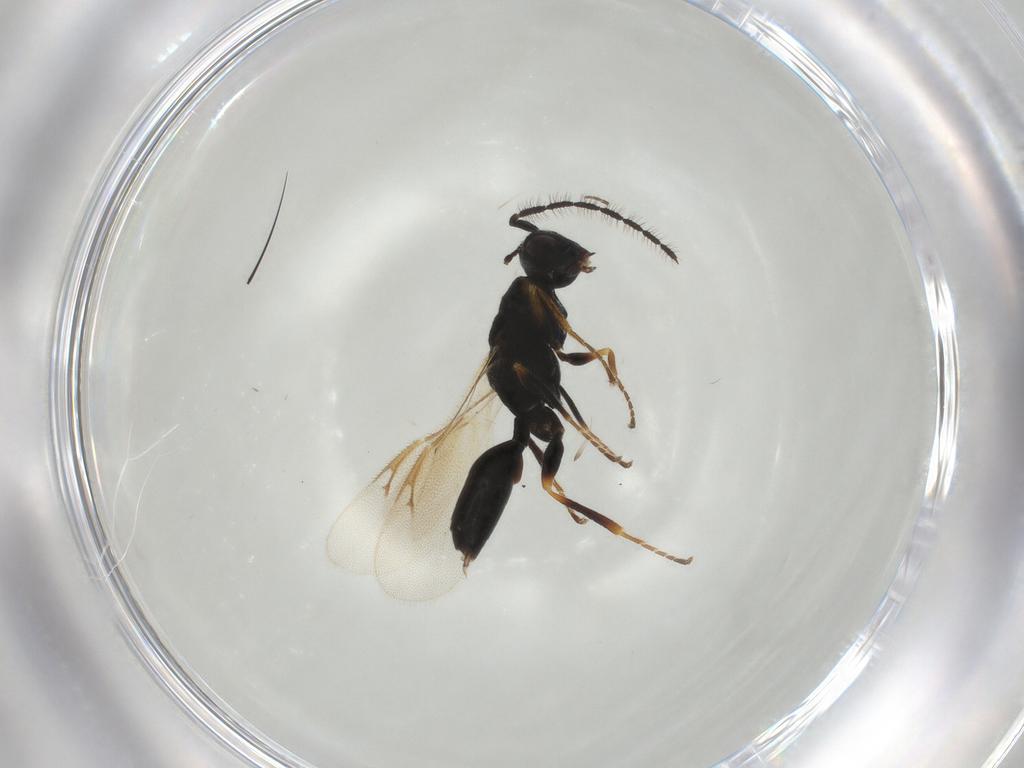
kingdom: Animalia
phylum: Arthropoda
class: Insecta
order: Hymenoptera
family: Eurytomidae
